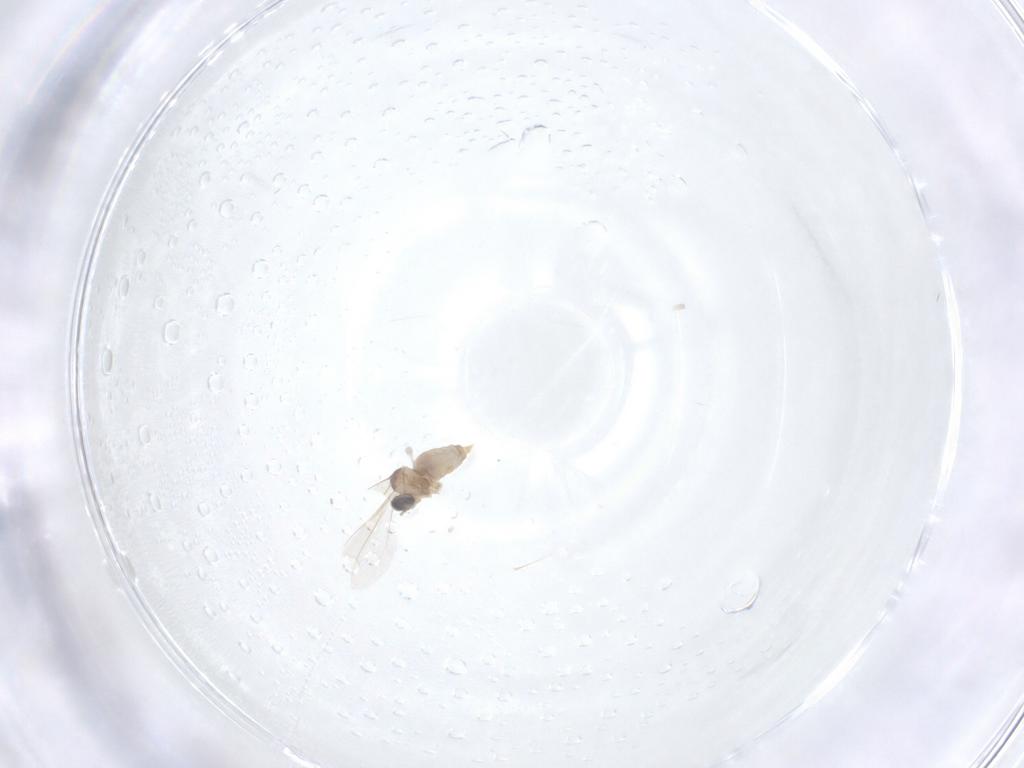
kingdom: Animalia
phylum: Arthropoda
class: Insecta
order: Diptera
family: Cecidomyiidae
